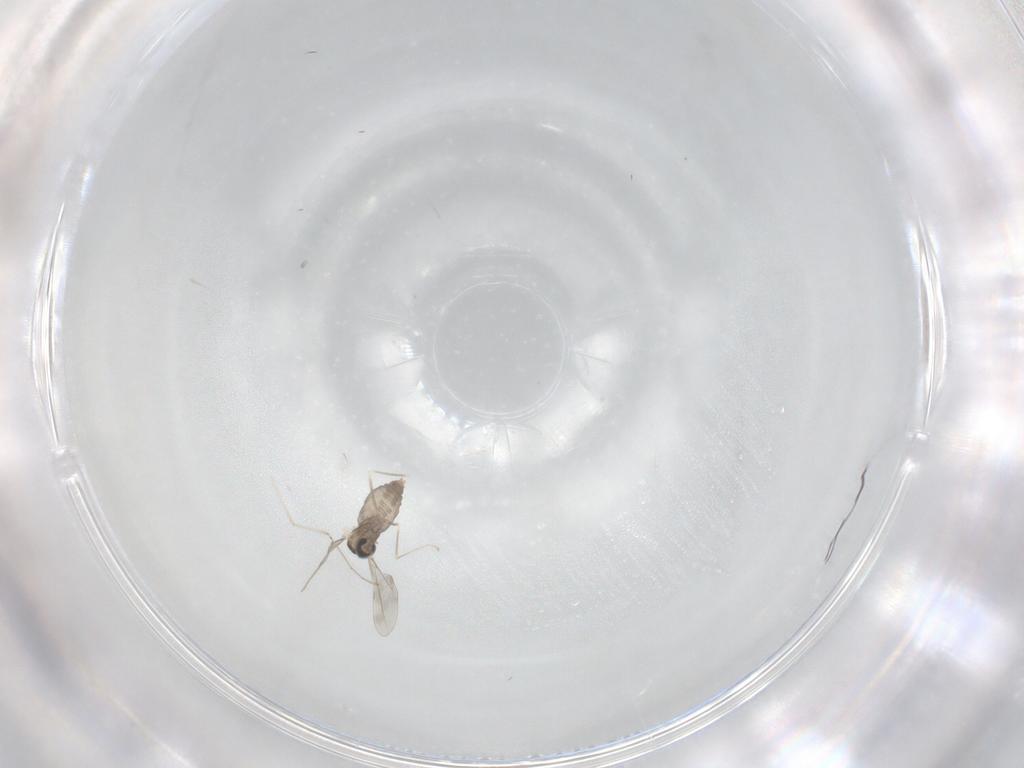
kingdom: Animalia
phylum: Arthropoda
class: Insecta
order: Diptera
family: Cecidomyiidae
